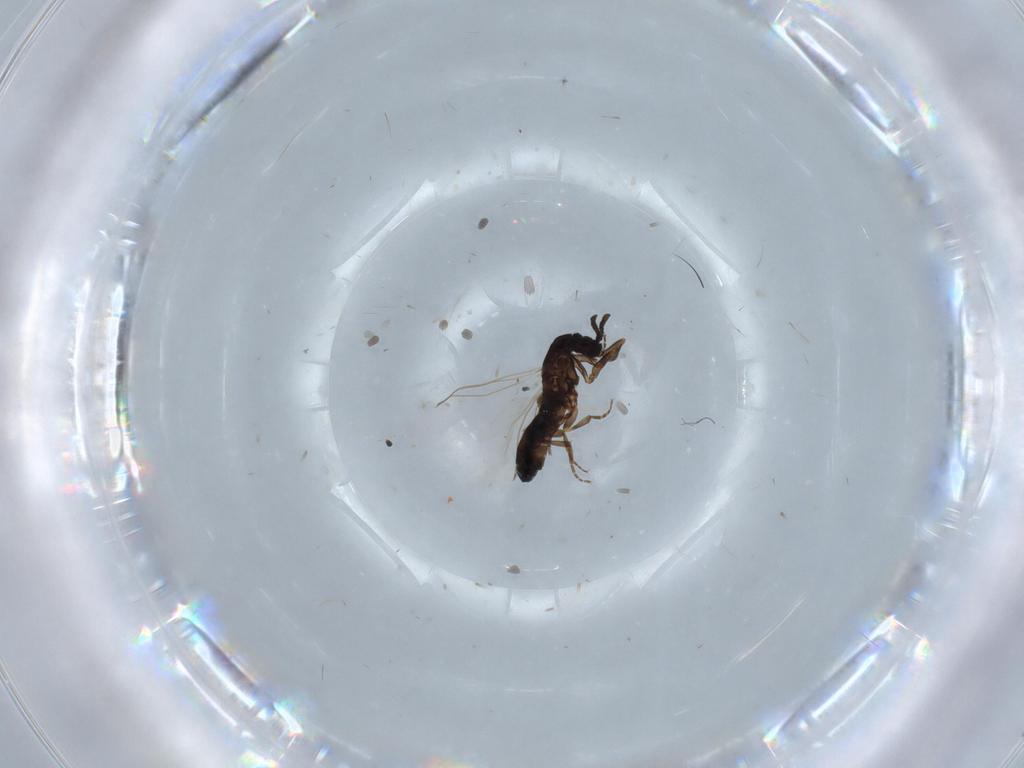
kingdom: Animalia
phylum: Arthropoda
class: Insecta
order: Diptera
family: Scatopsidae
